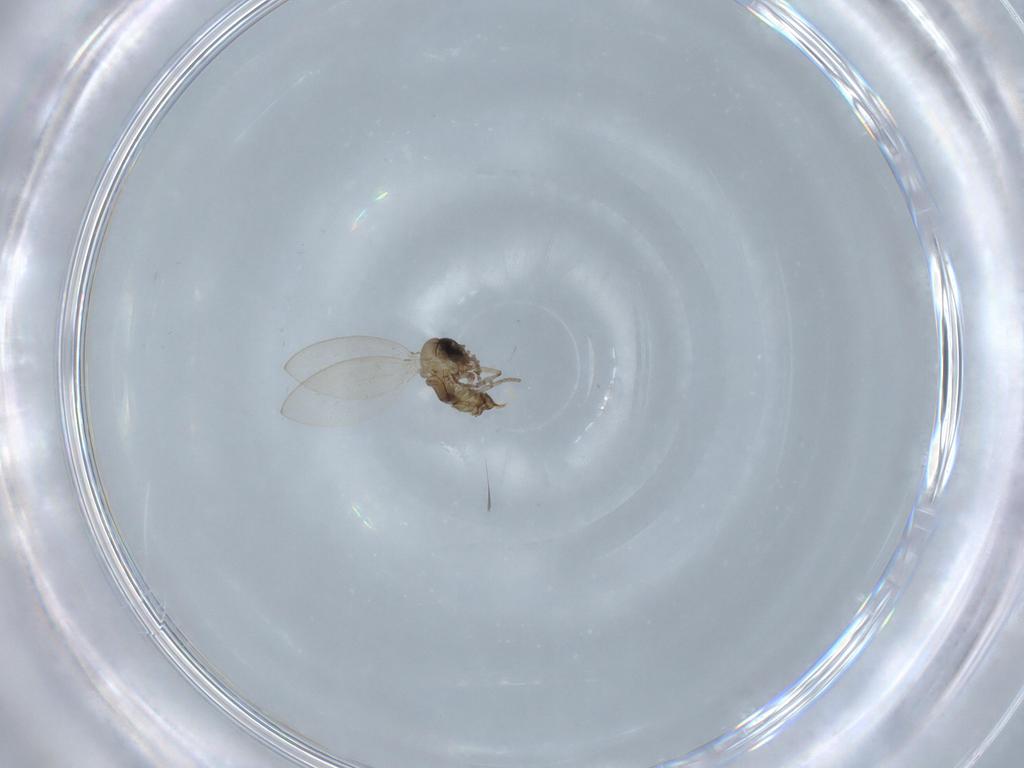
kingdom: Animalia
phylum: Arthropoda
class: Insecta
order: Diptera
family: Psychodidae
